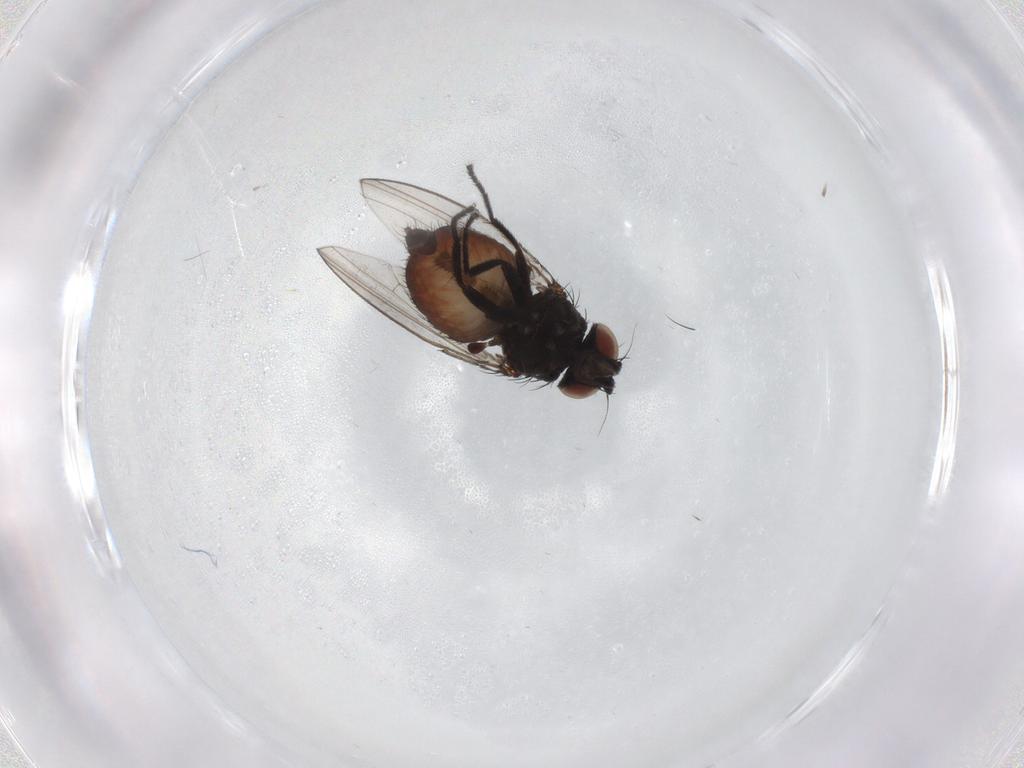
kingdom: Animalia
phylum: Arthropoda
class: Insecta
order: Diptera
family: Milichiidae
